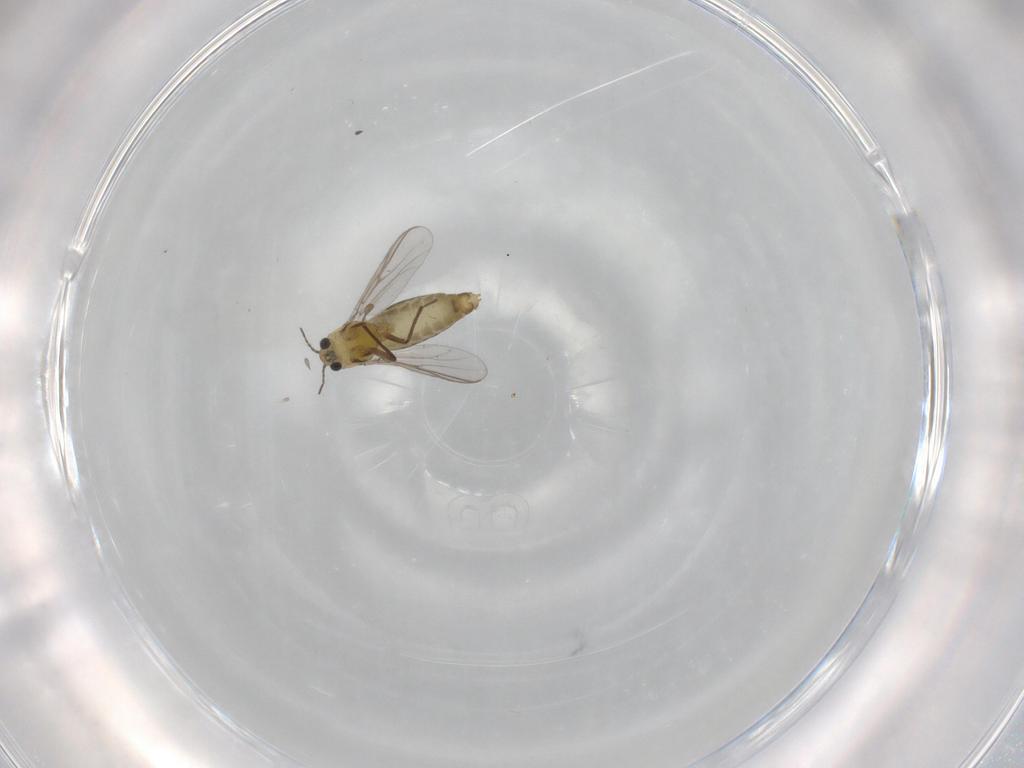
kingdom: Animalia
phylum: Arthropoda
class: Insecta
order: Diptera
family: Chironomidae
